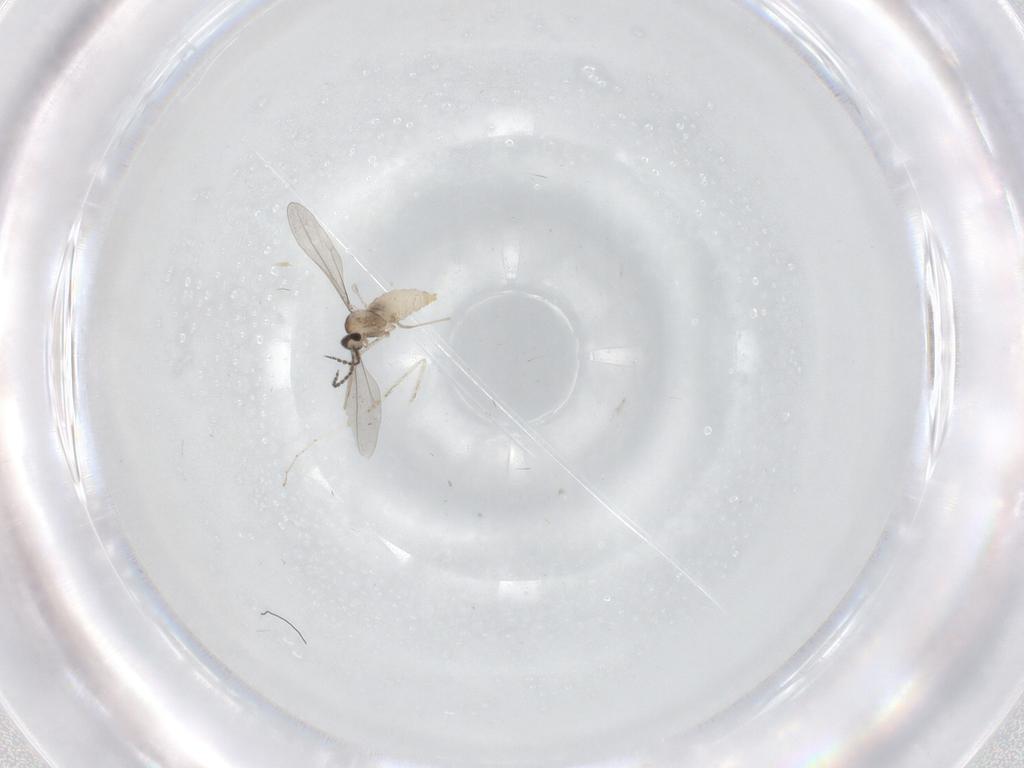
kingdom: Animalia
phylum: Arthropoda
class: Insecta
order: Diptera
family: Cecidomyiidae
